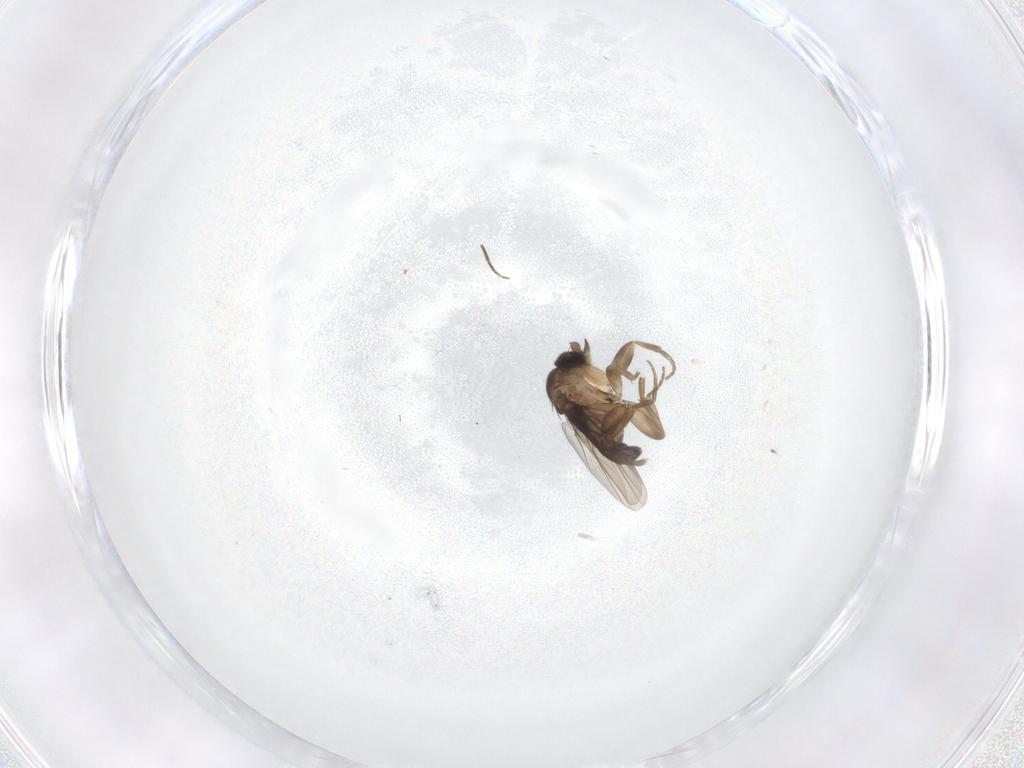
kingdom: Animalia
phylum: Arthropoda
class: Insecta
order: Diptera
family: Phoridae
